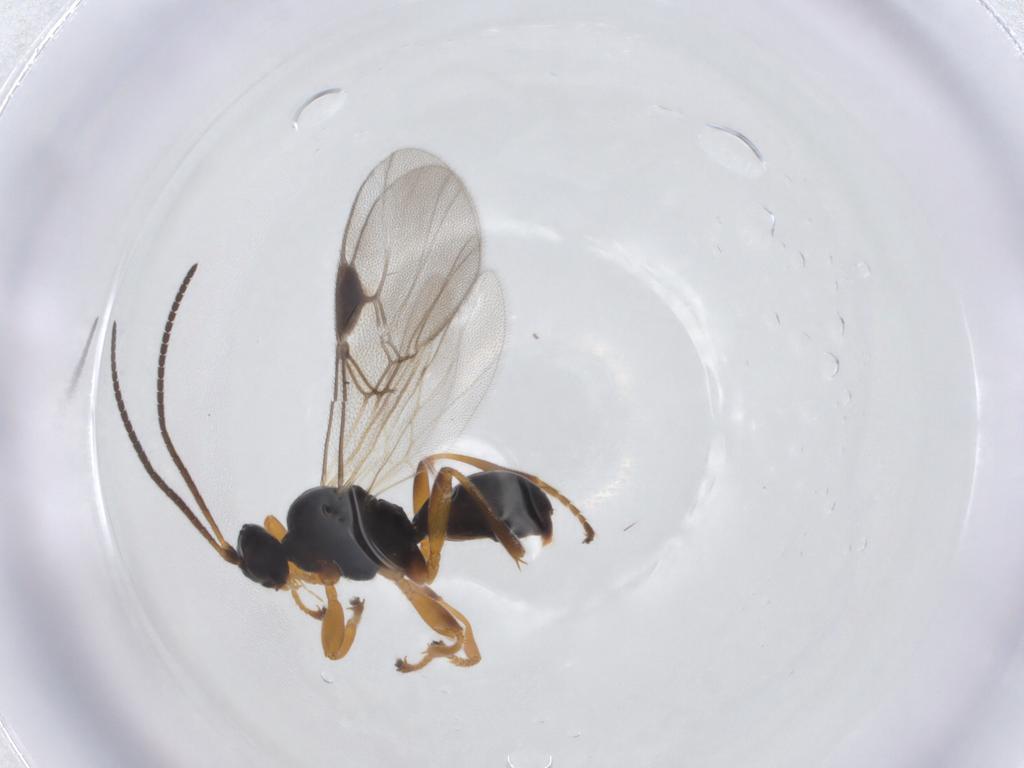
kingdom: Animalia
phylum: Arthropoda
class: Insecta
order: Hymenoptera
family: Braconidae
